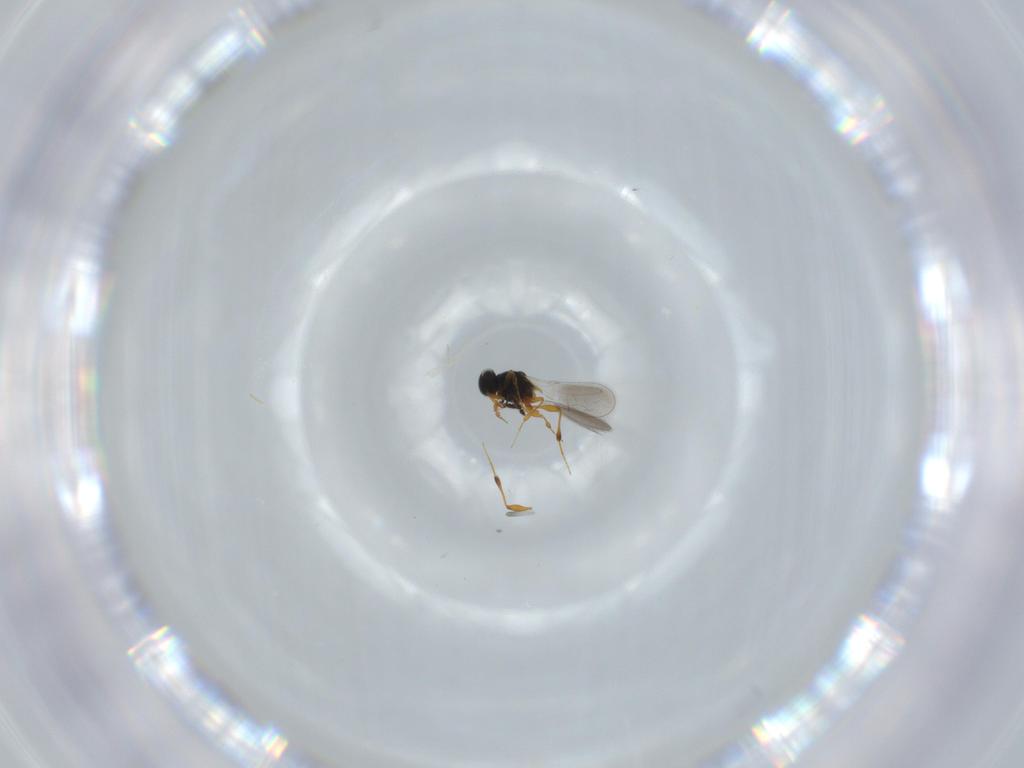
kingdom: Animalia
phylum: Arthropoda
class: Insecta
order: Hymenoptera
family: Platygastridae
